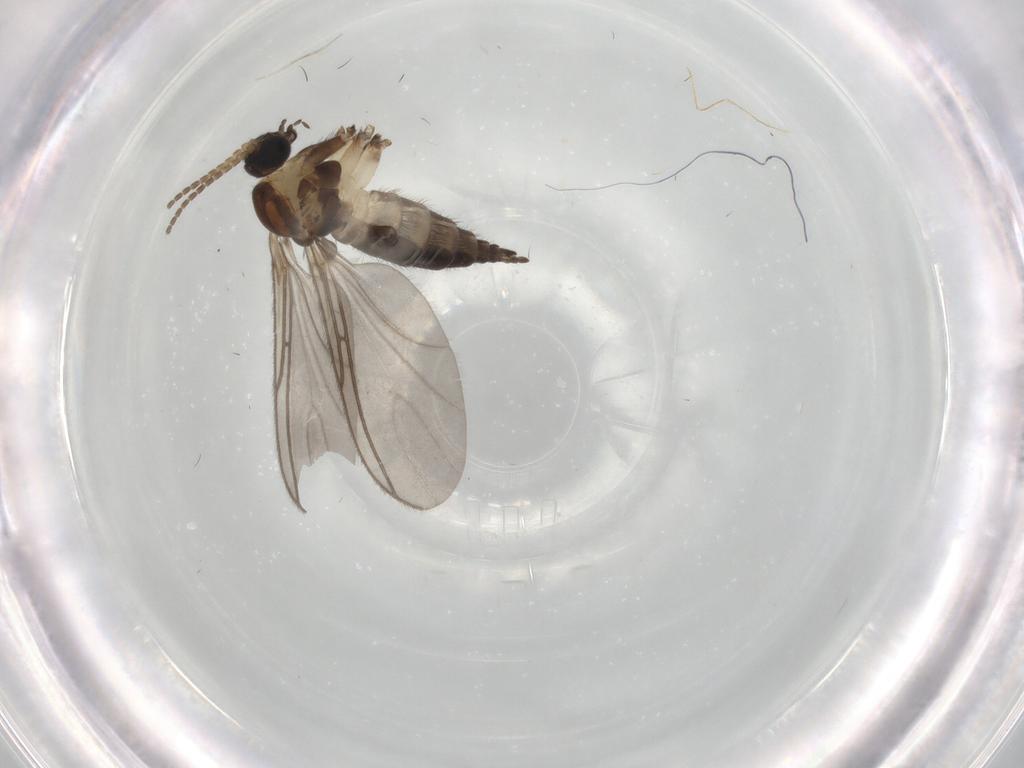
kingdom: Animalia
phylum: Arthropoda
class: Insecta
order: Diptera
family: Sciaridae
